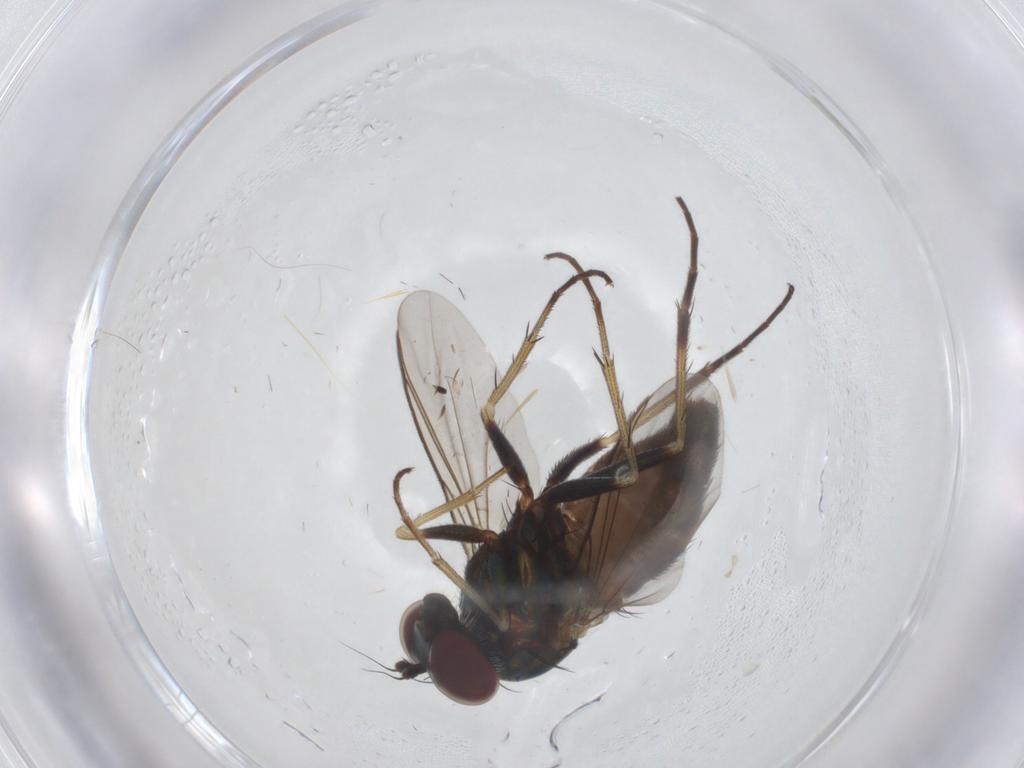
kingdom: Animalia
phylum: Arthropoda
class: Insecta
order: Diptera
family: Dolichopodidae
